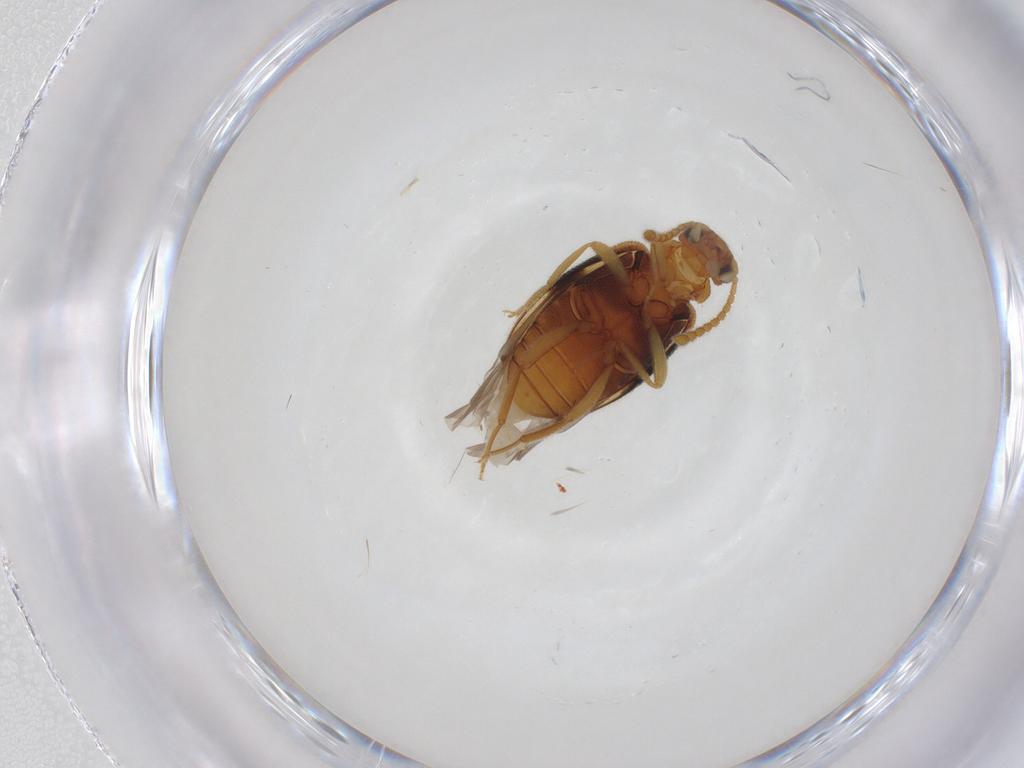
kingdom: Animalia
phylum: Arthropoda
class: Insecta
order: Coleoptera
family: Aderidae
